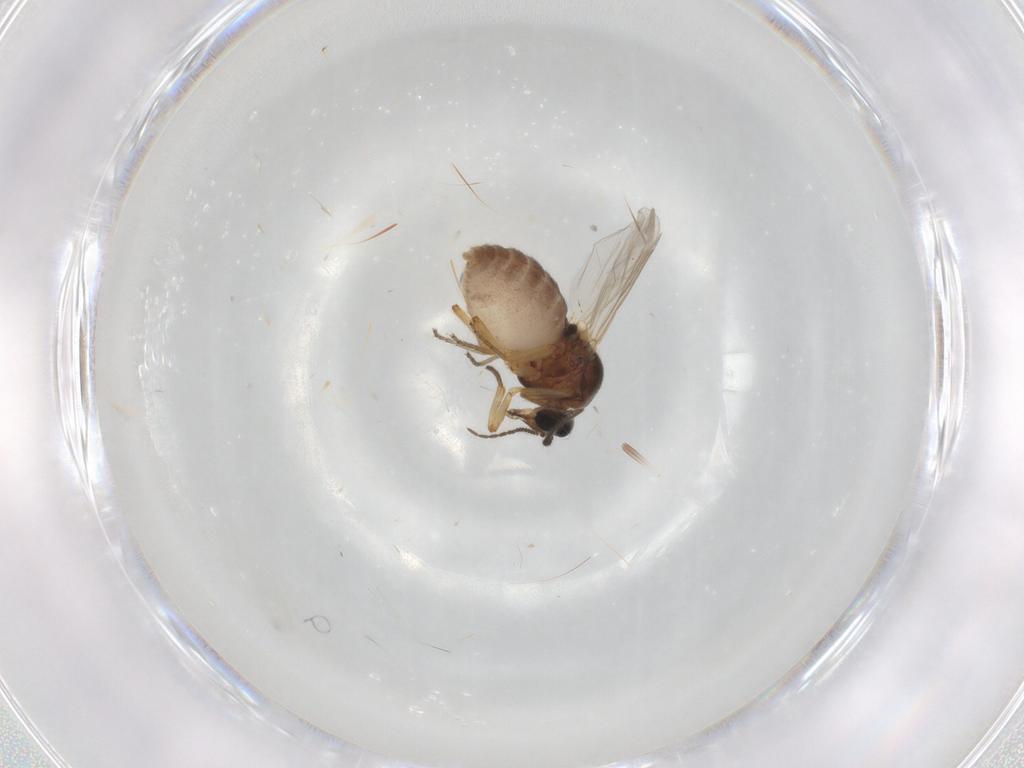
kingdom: Animalia
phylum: Arthropoda
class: Insecta
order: Diptera
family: Ceratopogonidae
